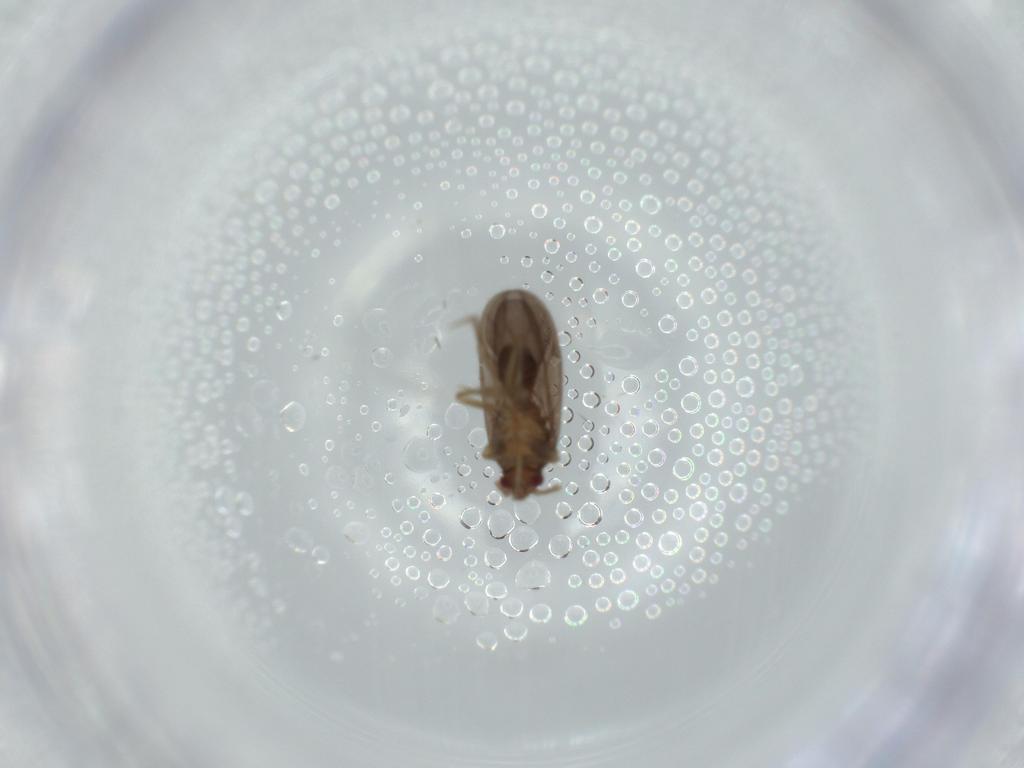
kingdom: Animalia
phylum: Arthropoda
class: Insecta
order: Hemiptera
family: Ceratocombidae
